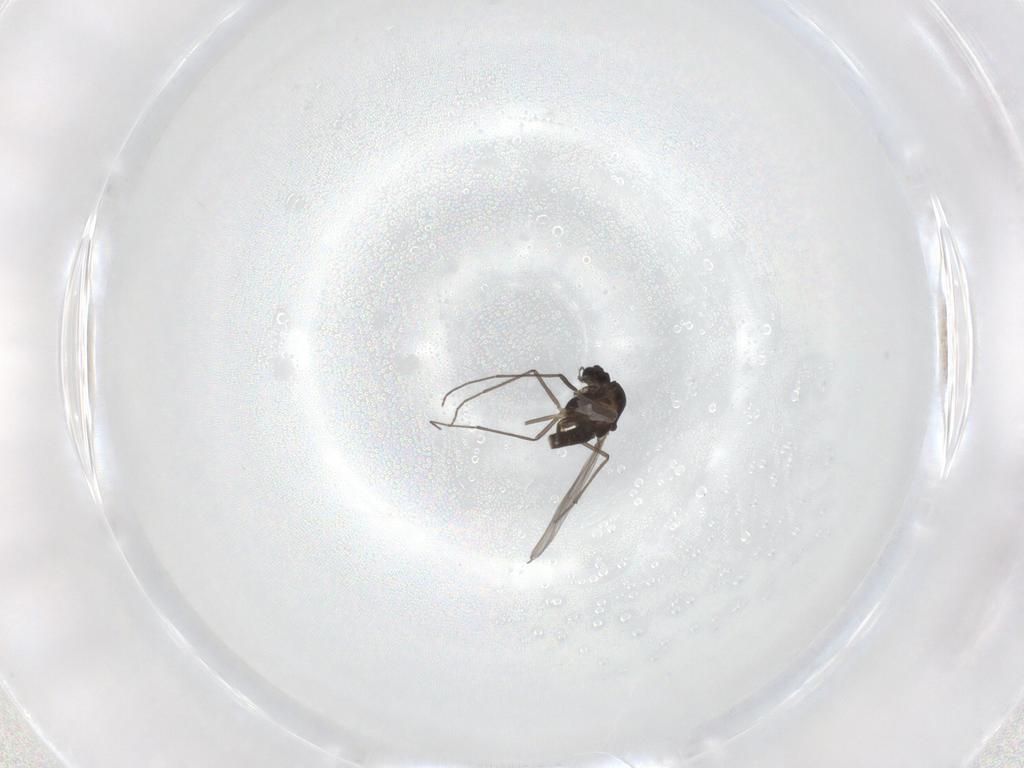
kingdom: Animalia
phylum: Arthropoda
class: Insecta
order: Diptera
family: Chironomidae
